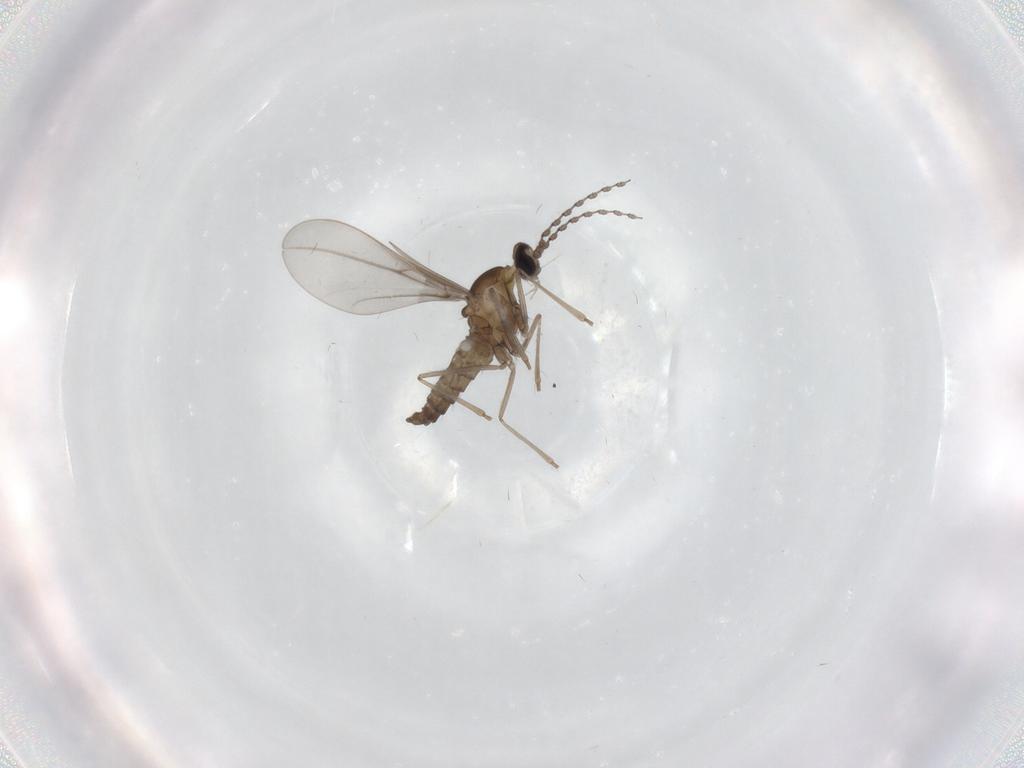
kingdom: Animalia
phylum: Arthropoda
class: Insecta
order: Diptera
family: Cecidomyiidae
